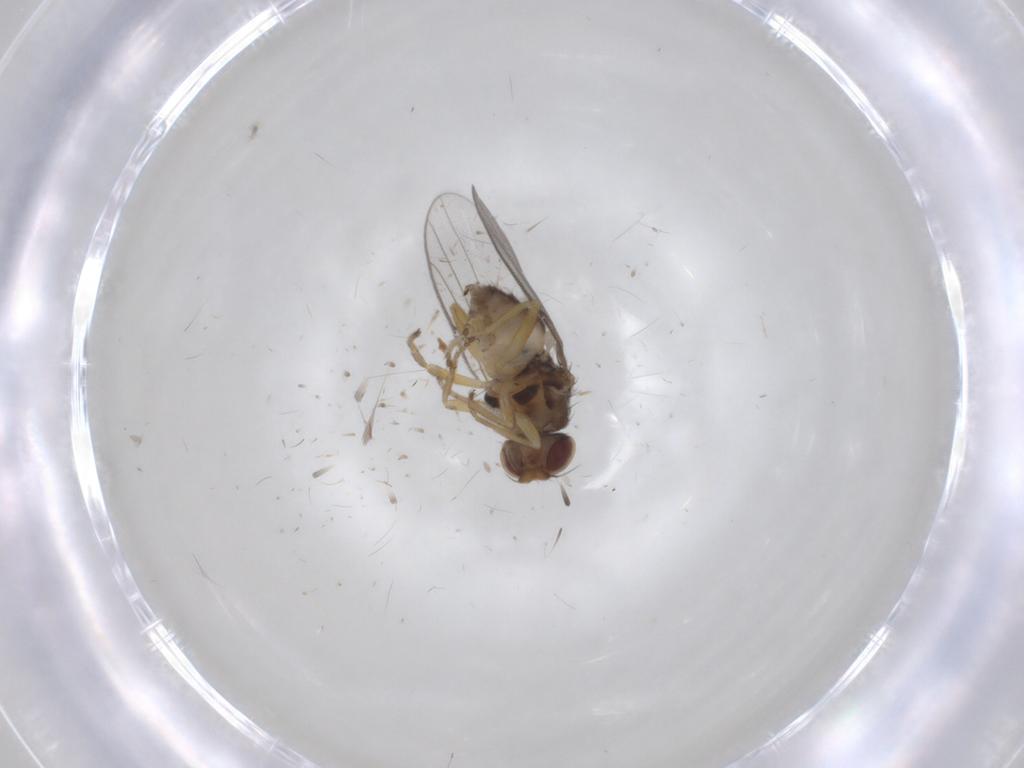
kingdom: Animalia
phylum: Arthropoda
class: Insecta
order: Diptera
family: Chloropidae
